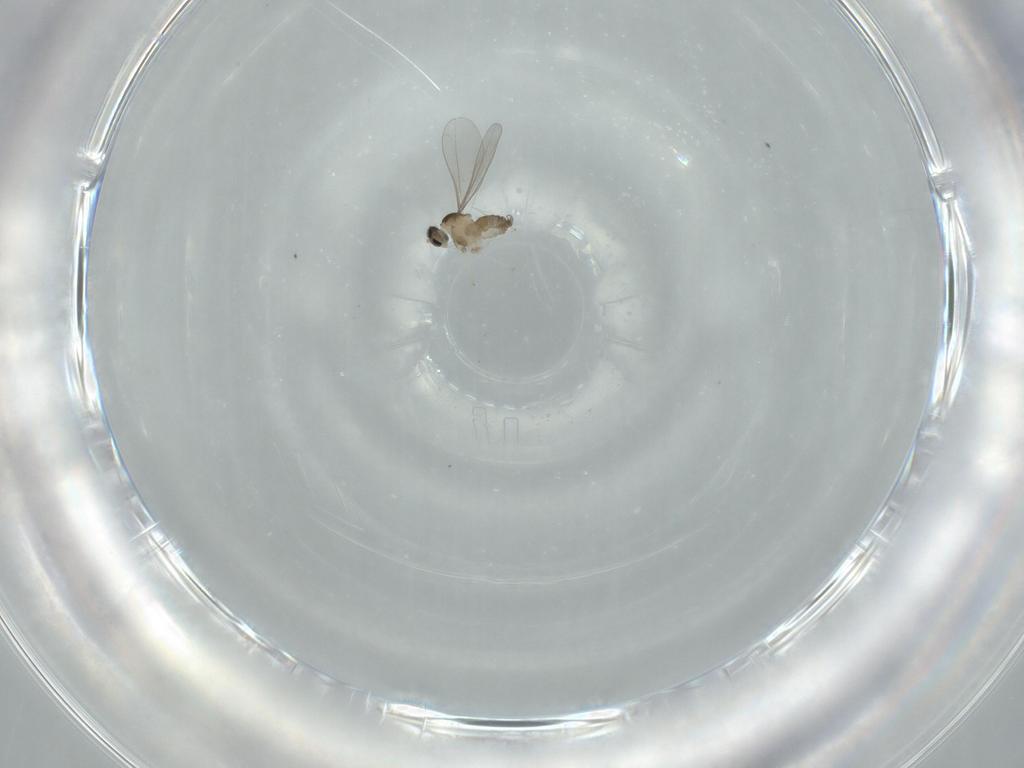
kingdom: Animalia
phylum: Arthropoda
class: Insecta
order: Diptera
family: Cecidomyiidae
